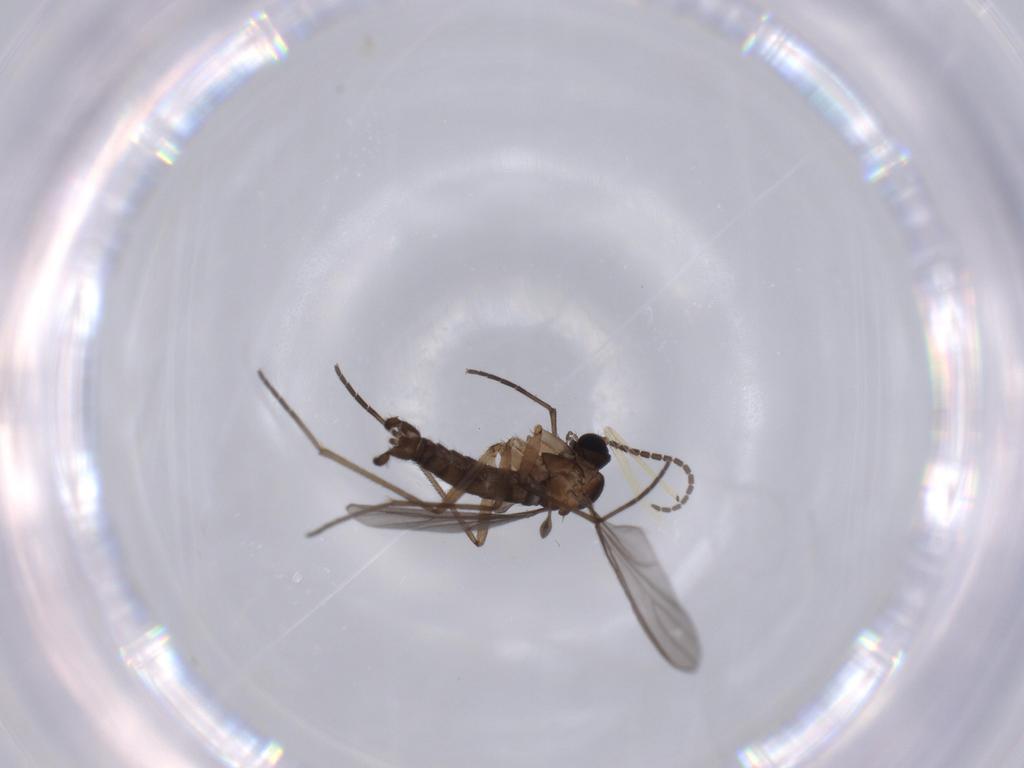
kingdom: Animalia
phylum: Arthropoda
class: Insecta
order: Diptera
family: Sciaridae
